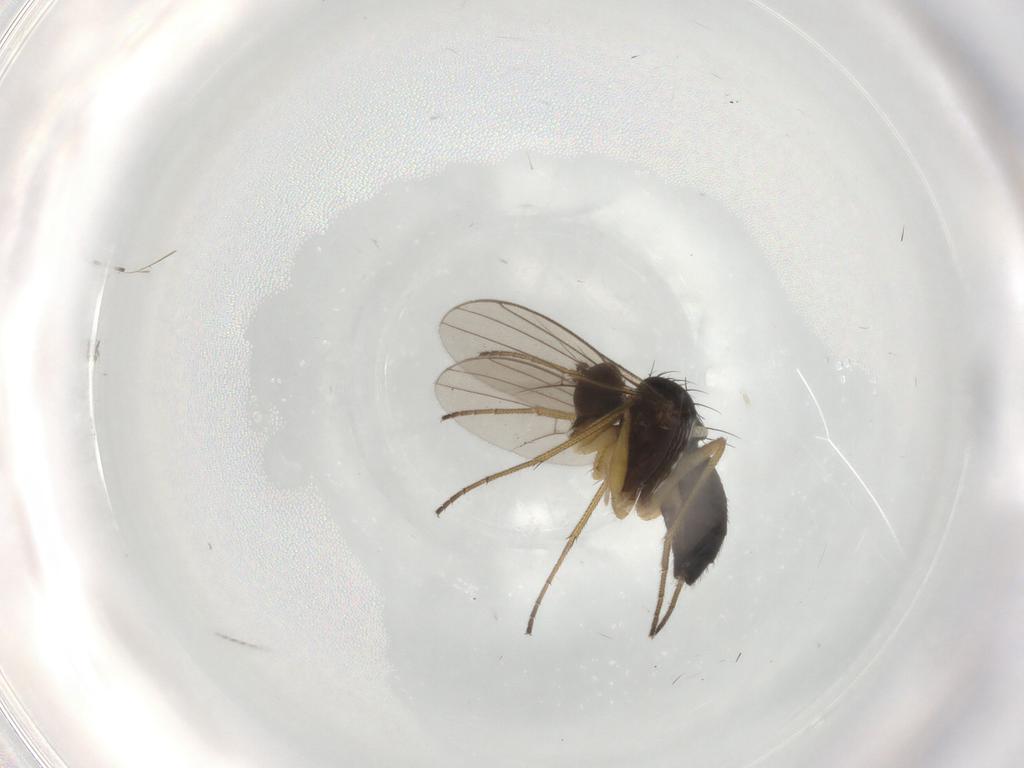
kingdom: Animalia
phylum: Arthropoda
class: Insecta
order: Diptera
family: Dolichopodidae
